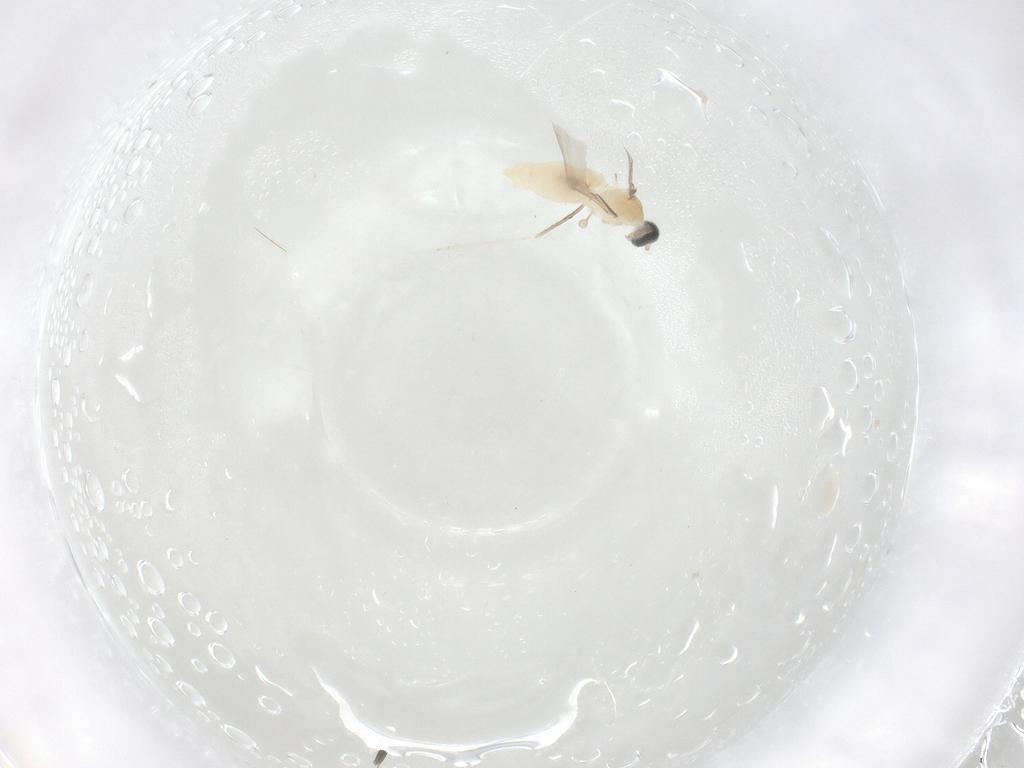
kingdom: Animalia
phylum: Arthropoda
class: Insecta
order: Diptera
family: Cecidomyiidae
